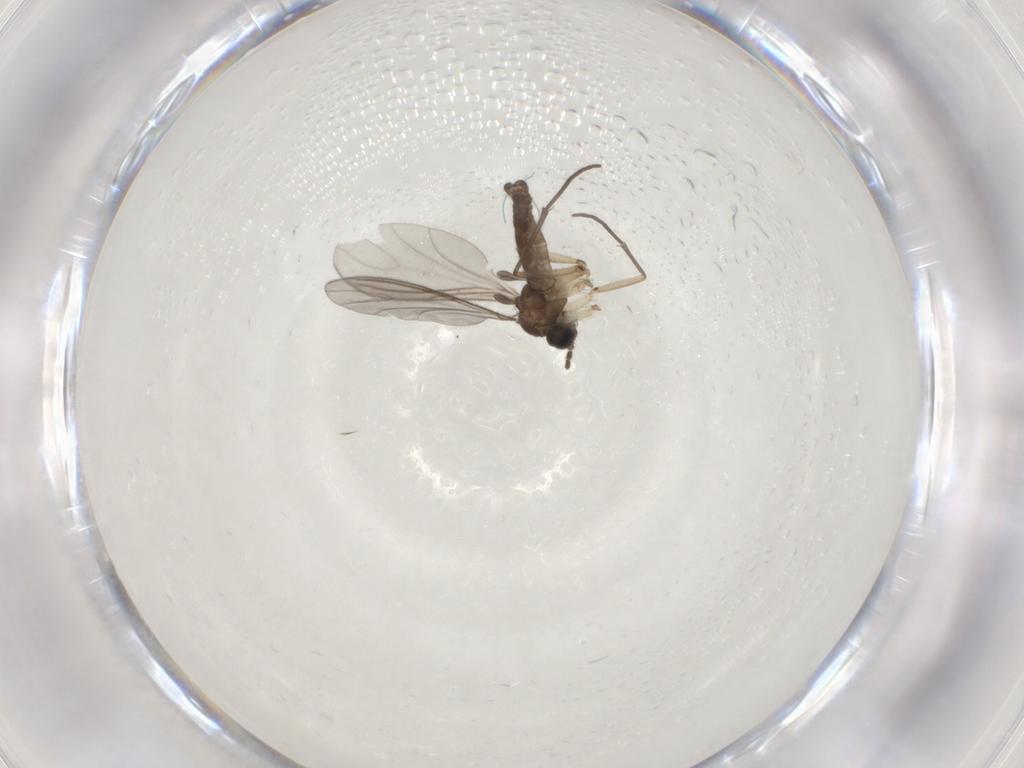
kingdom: Animalia
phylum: Arthropoda
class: Insecta
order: Diptera
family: Sciaridae
